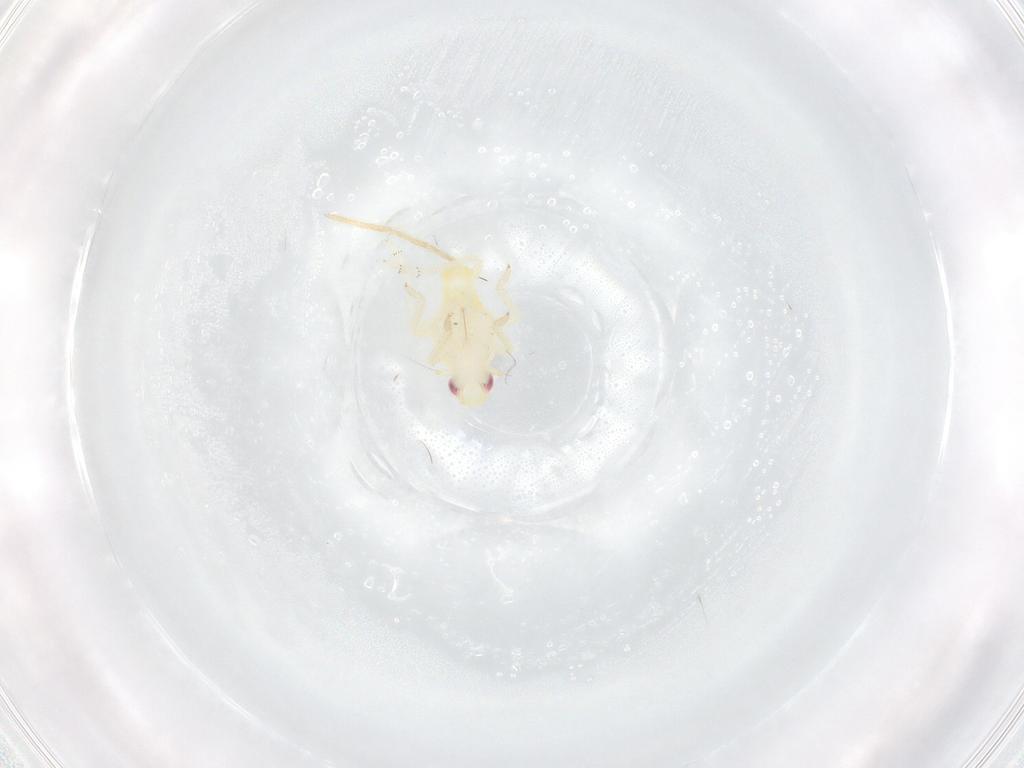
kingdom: Animalia
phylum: Arthropoda
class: Insecta
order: Hemiptera
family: Tropiduchidae
